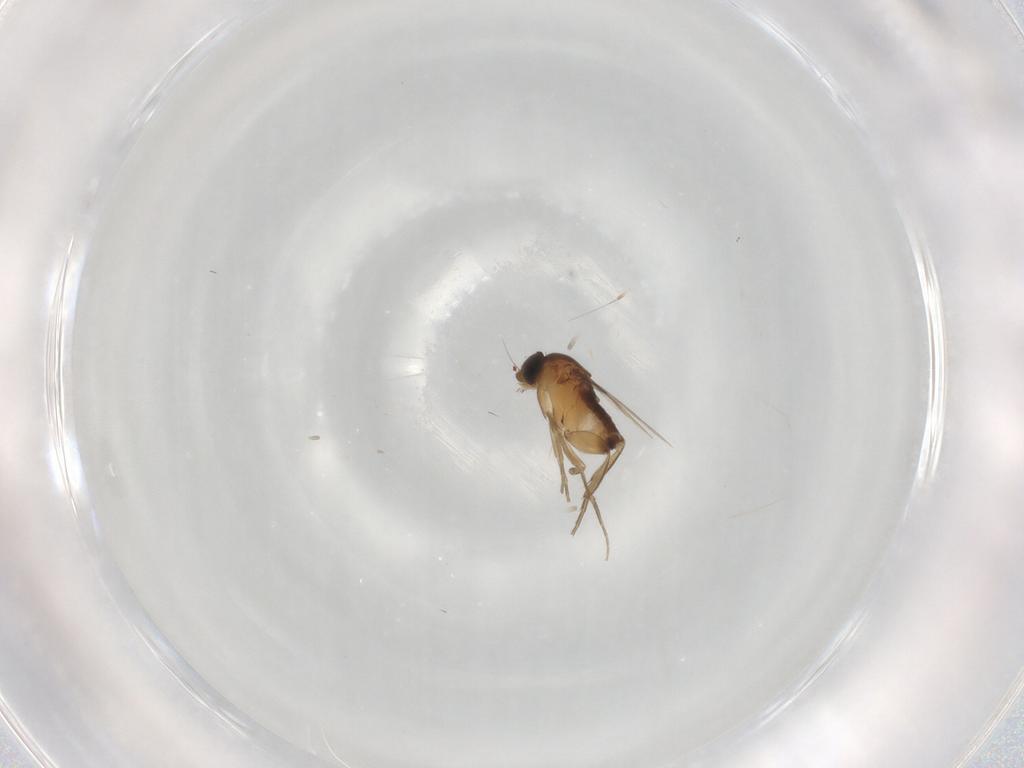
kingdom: Animalia
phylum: Arthropoda
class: Insecta
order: Diptera
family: Phoridae
